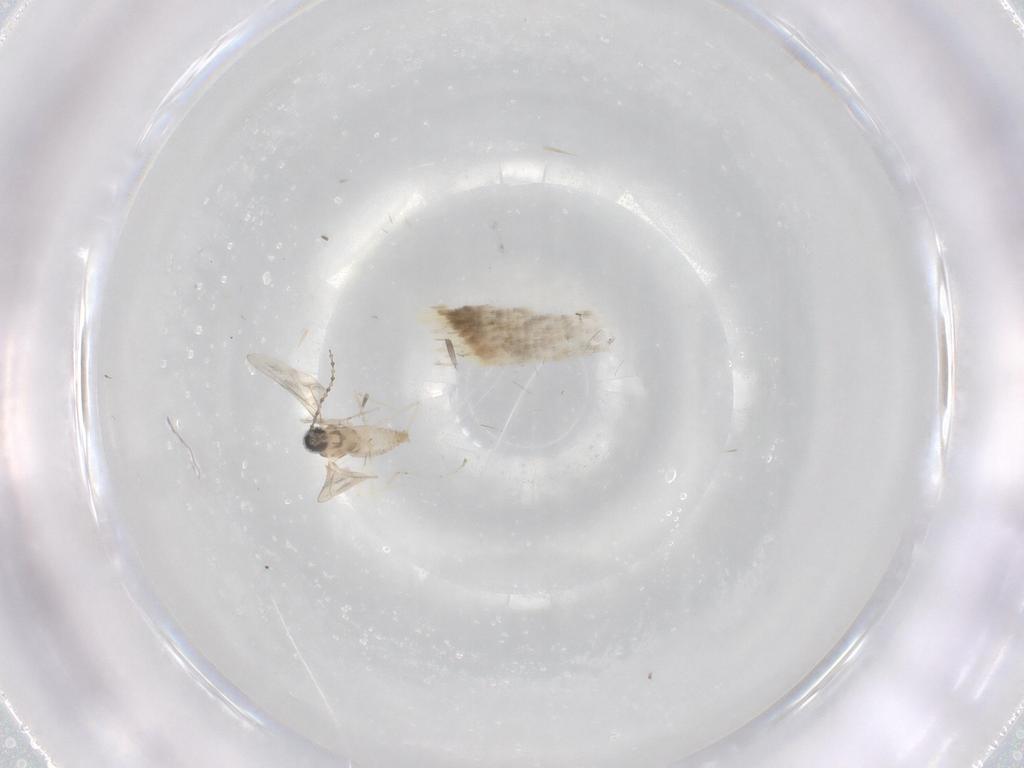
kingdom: Animalia
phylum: Arthropoda
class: Insecta
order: Diptera
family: Cecidomyiidae
